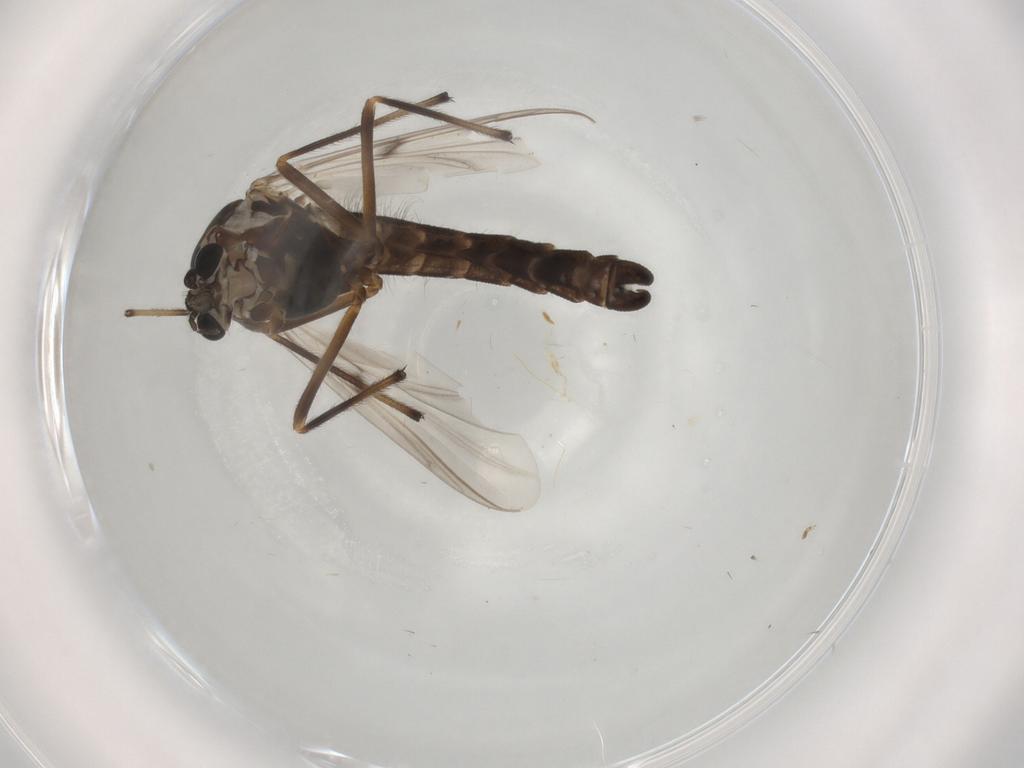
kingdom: Animalia
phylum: Arthropoda
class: Insecta
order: Diptera
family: Chironomidae
